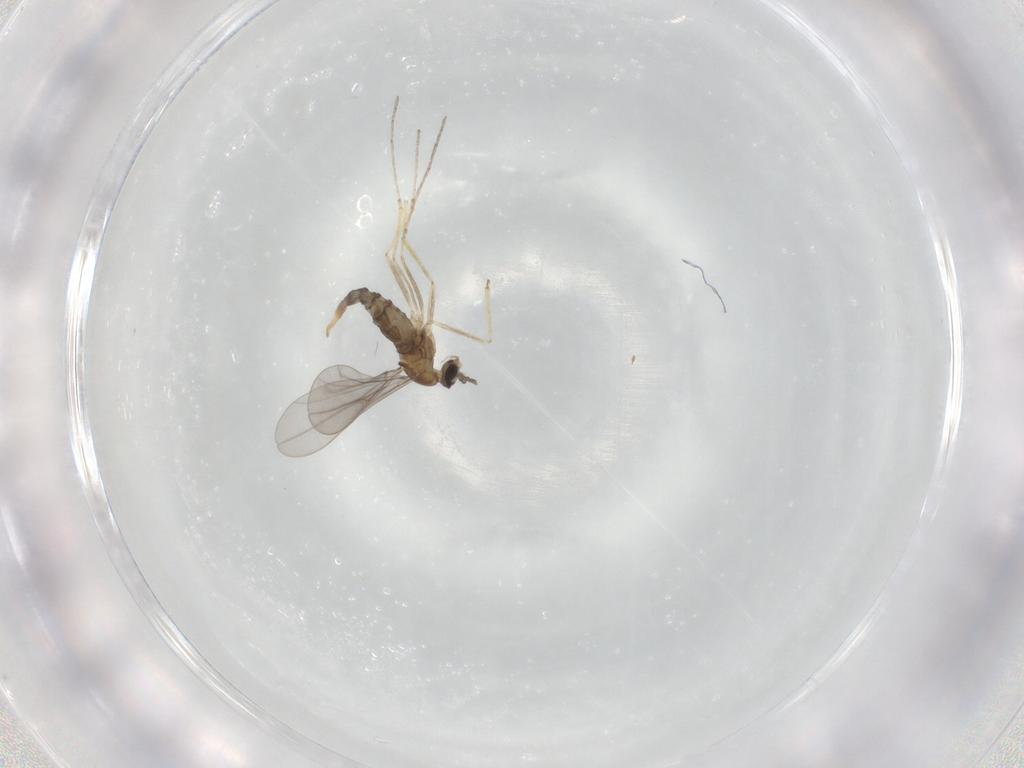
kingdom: Animalia
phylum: Arthropoda
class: Insecta
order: Diptera
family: Cecidomyiidae
